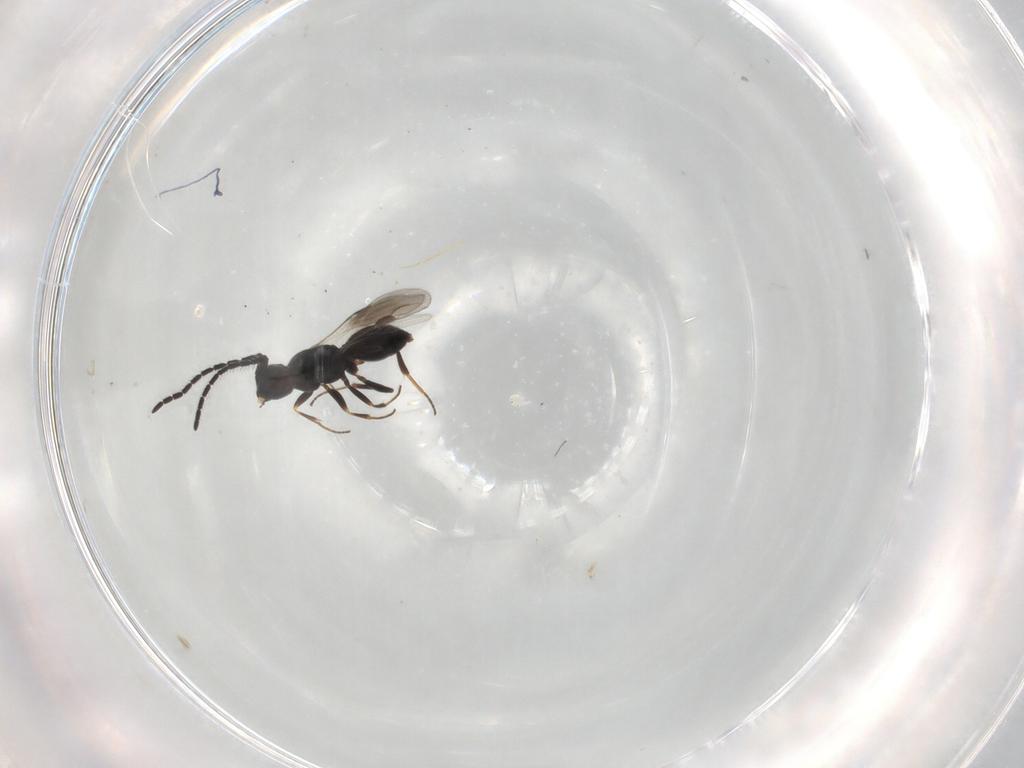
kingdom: Animalia
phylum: Arthropoda
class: Insecta
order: Hymenoptera
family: Megaspilidae
